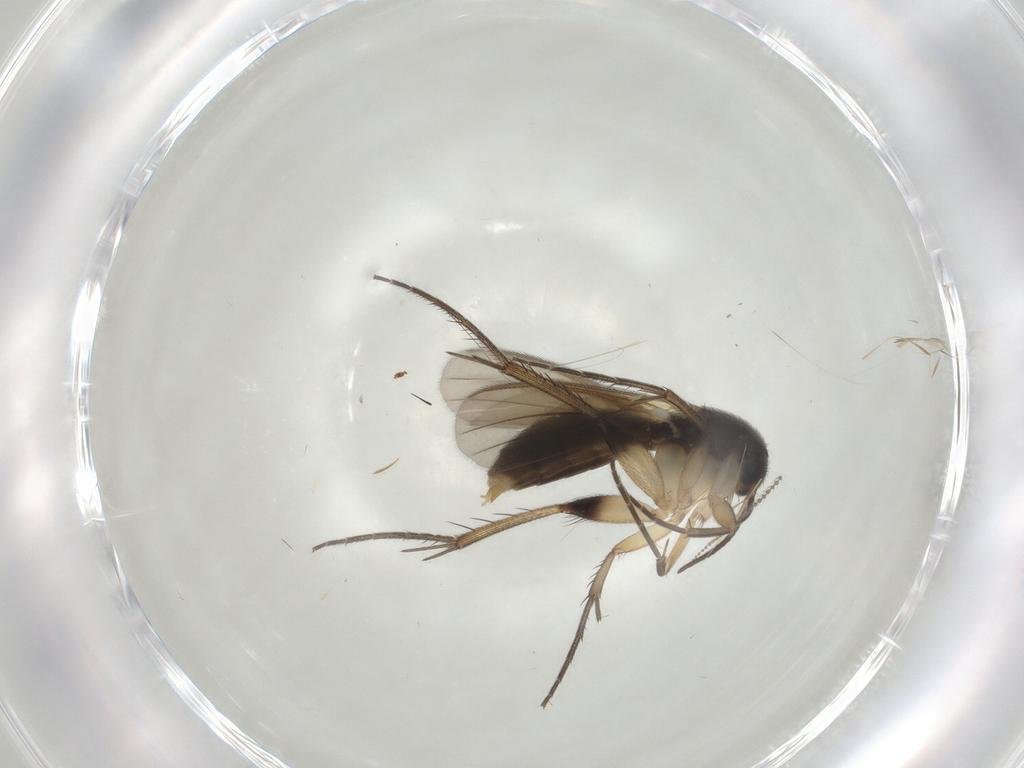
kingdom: Animalia
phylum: Arthropoda
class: Insecta
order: Diptera
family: Mycetophilidae
